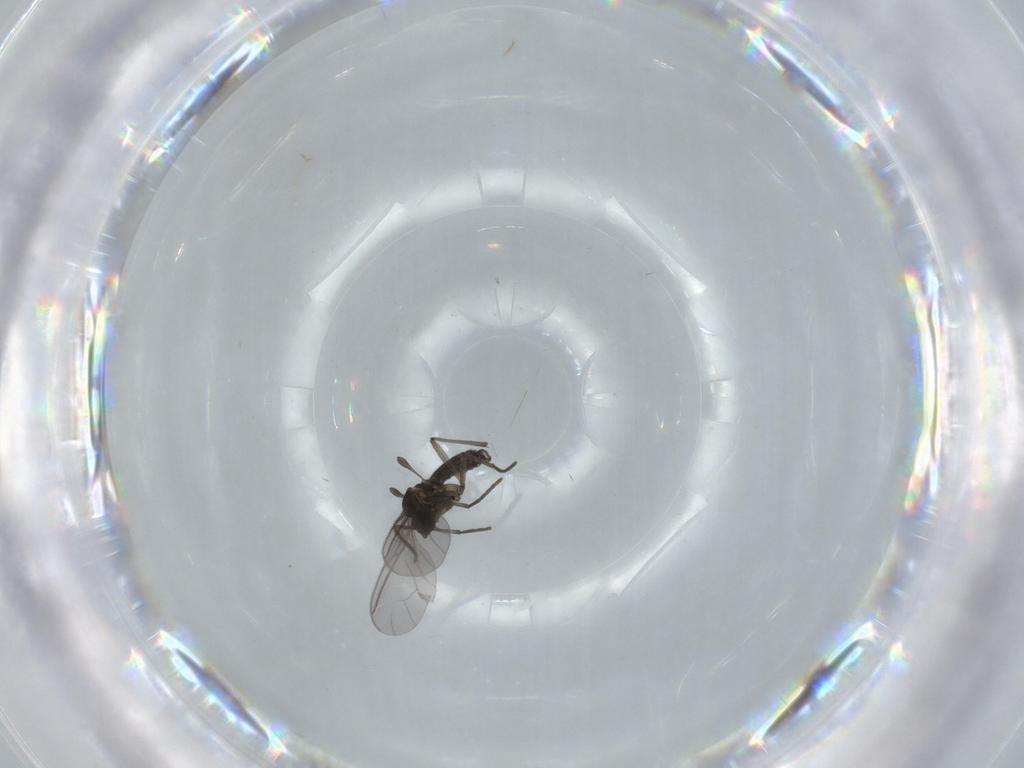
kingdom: Animalia
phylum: Arthropoda
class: Insecta
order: Diptera
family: Sciaridae
